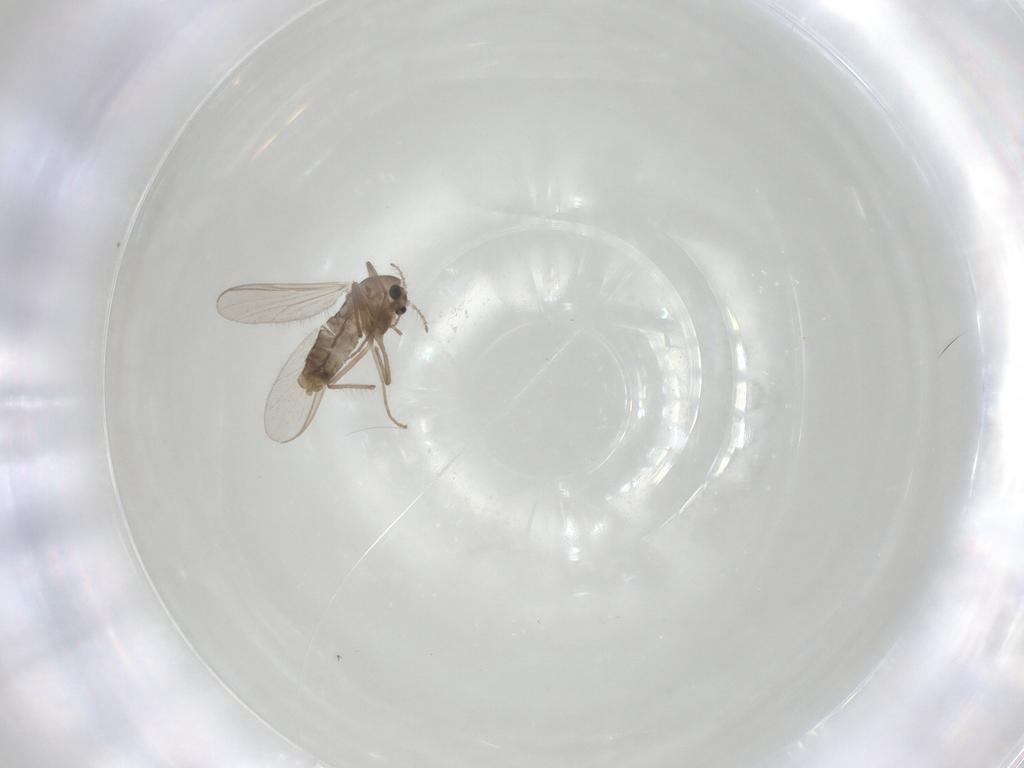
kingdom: Animalia
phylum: Arthropoda
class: Insecta
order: Diptera
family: Chironomidae
